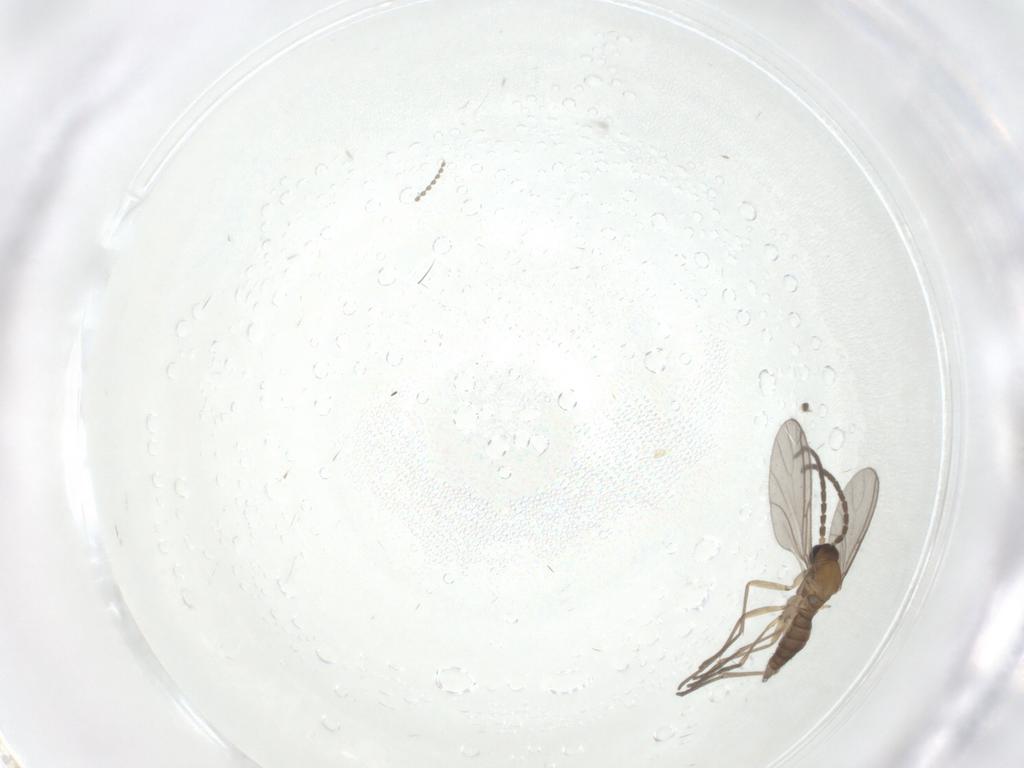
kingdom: Animalia
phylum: Arthropoda
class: Insecta
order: Diptera
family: Sciaridae
